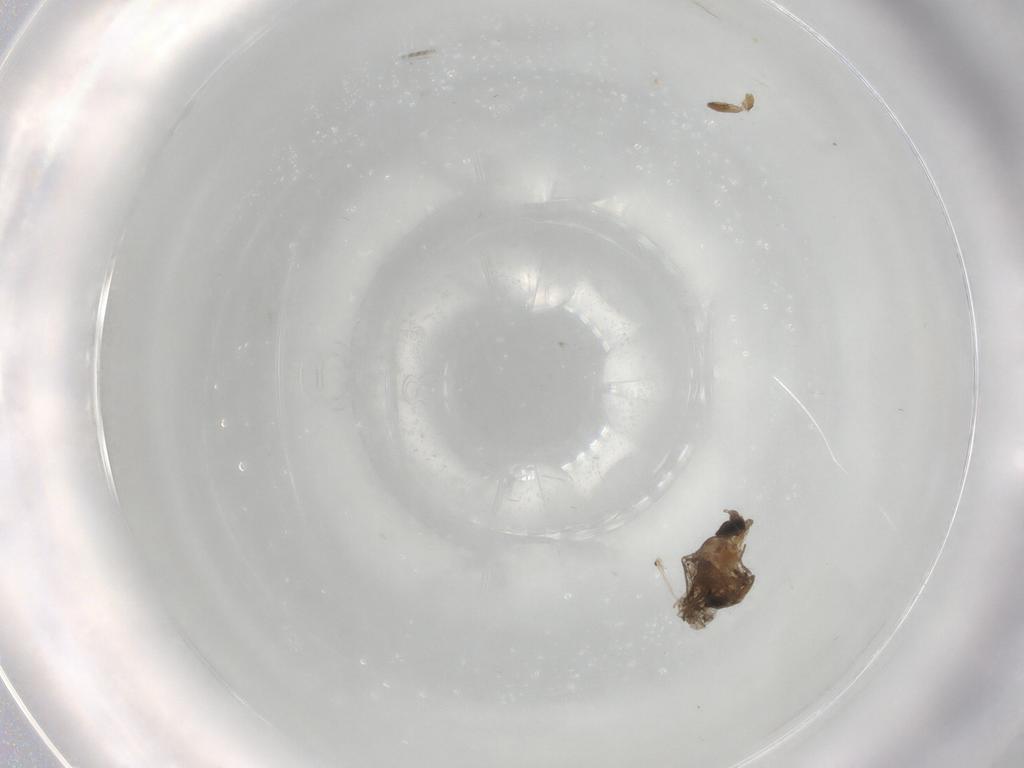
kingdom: Animalia
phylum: Arthropoda
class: Insecta
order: Diptera
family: Phoridae
